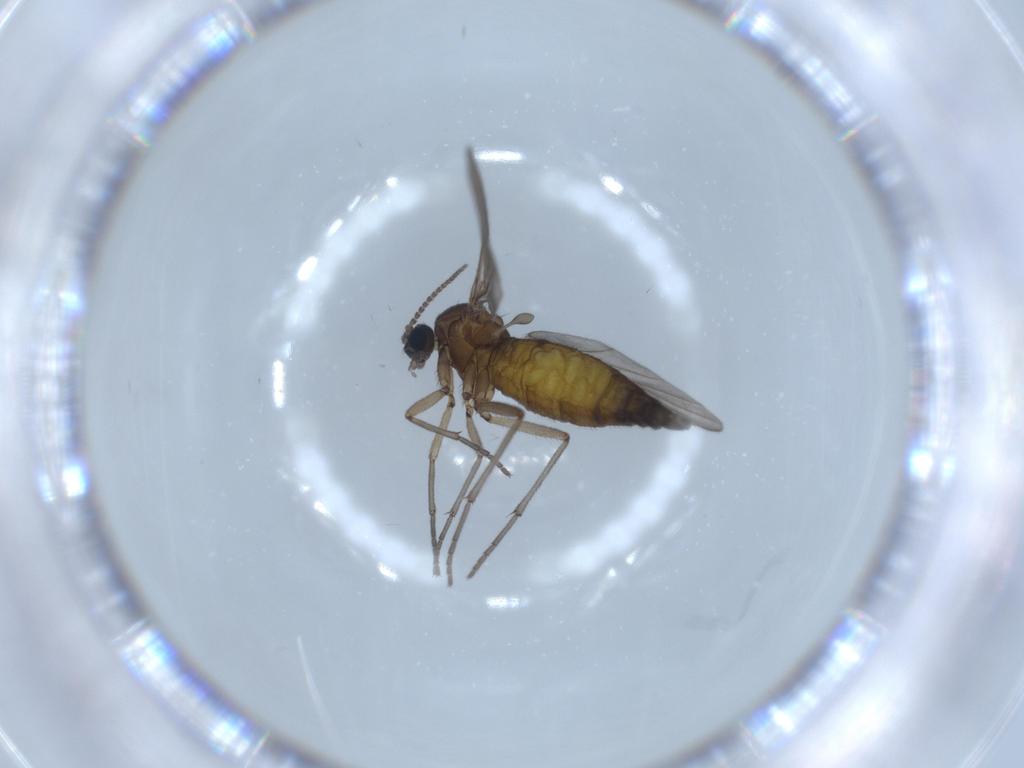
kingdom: Animalia
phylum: Arthropoda
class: Insecta
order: Diptera
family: Sciaridae
